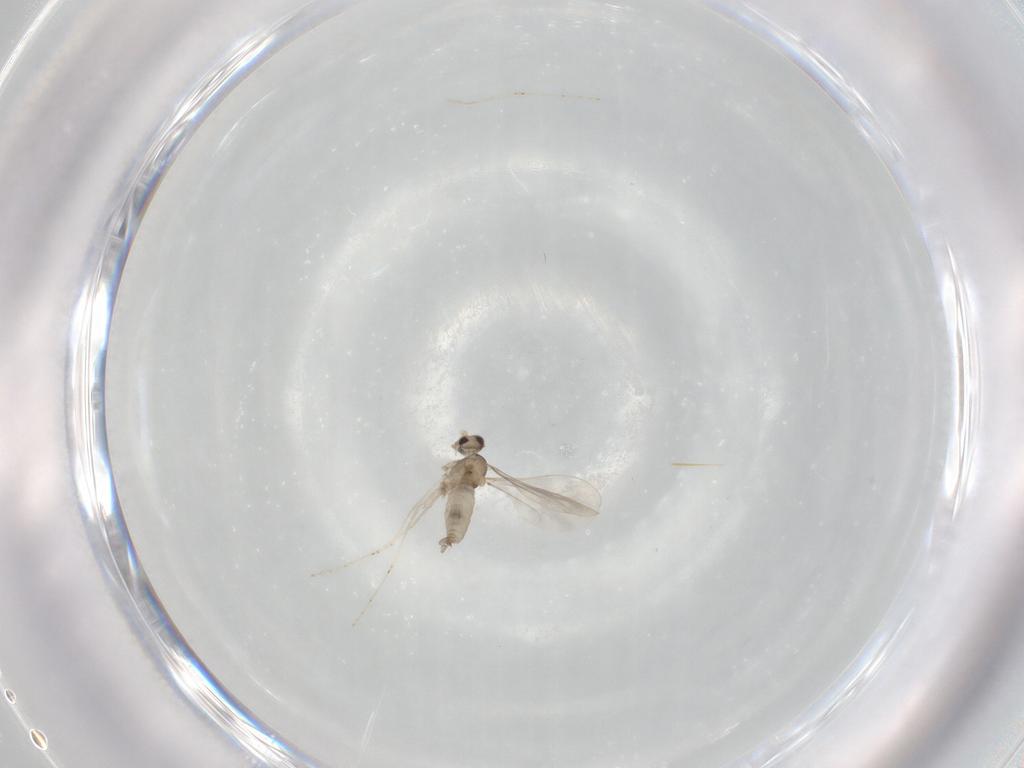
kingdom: Animalia
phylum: Arthropoda
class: Insecta
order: Diptera
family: Cecidomyiidae
